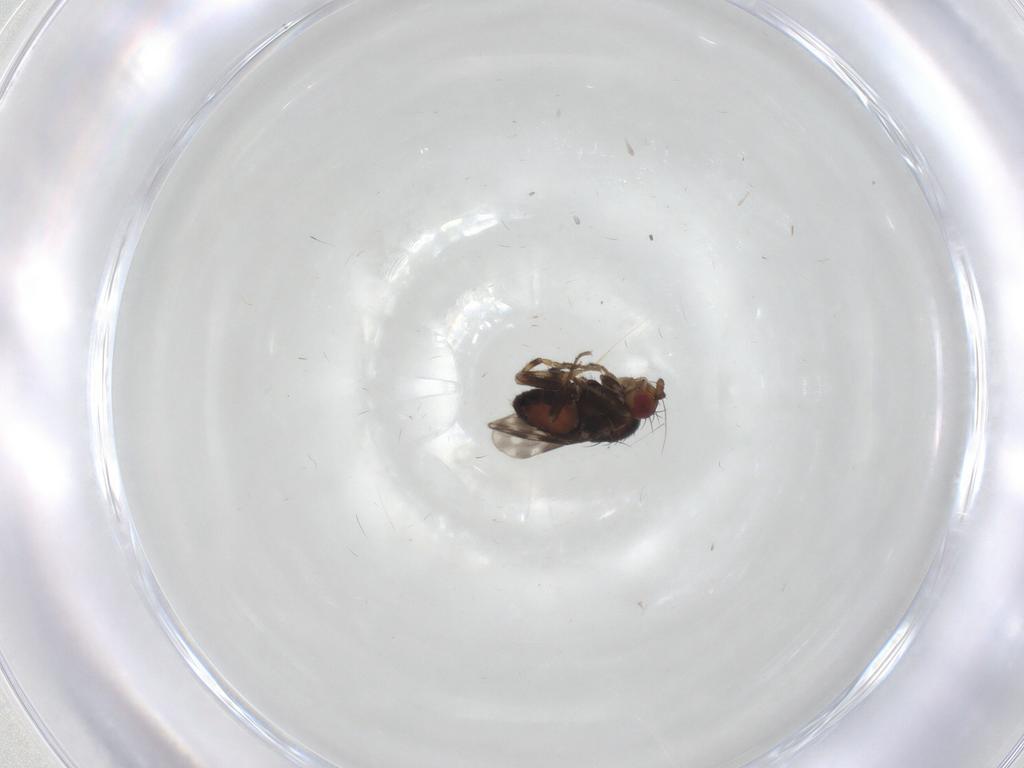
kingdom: Animalia
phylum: Arthropoda
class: Insecta
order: Diptera
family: Sphaeroceridae
